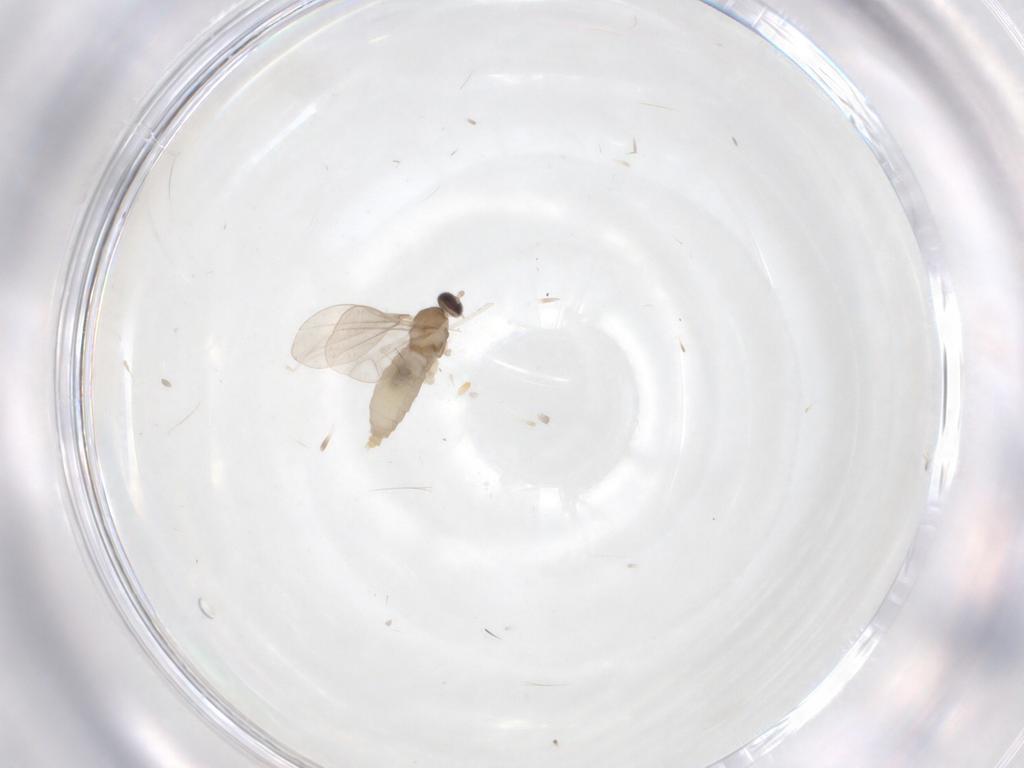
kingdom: Animalia
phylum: Arthropoda
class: Insecta
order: Diptera
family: Cecidomyiidae
